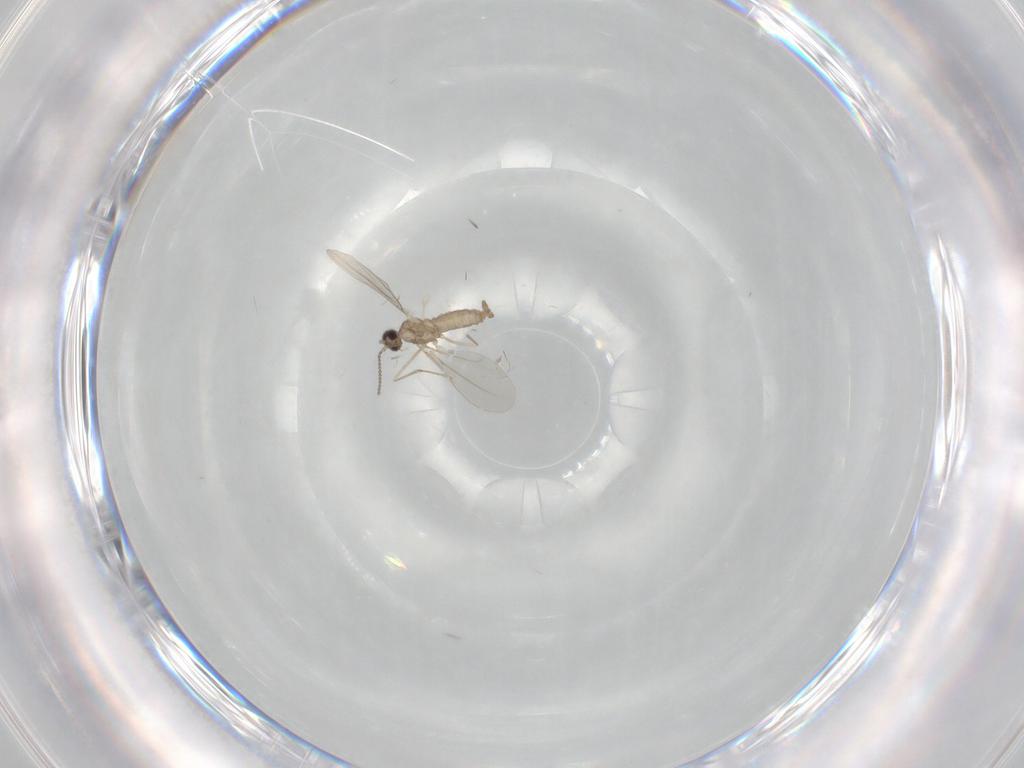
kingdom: Animalia
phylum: Arthropoda
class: Insecta
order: Diptera
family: Cecidomyiidae
